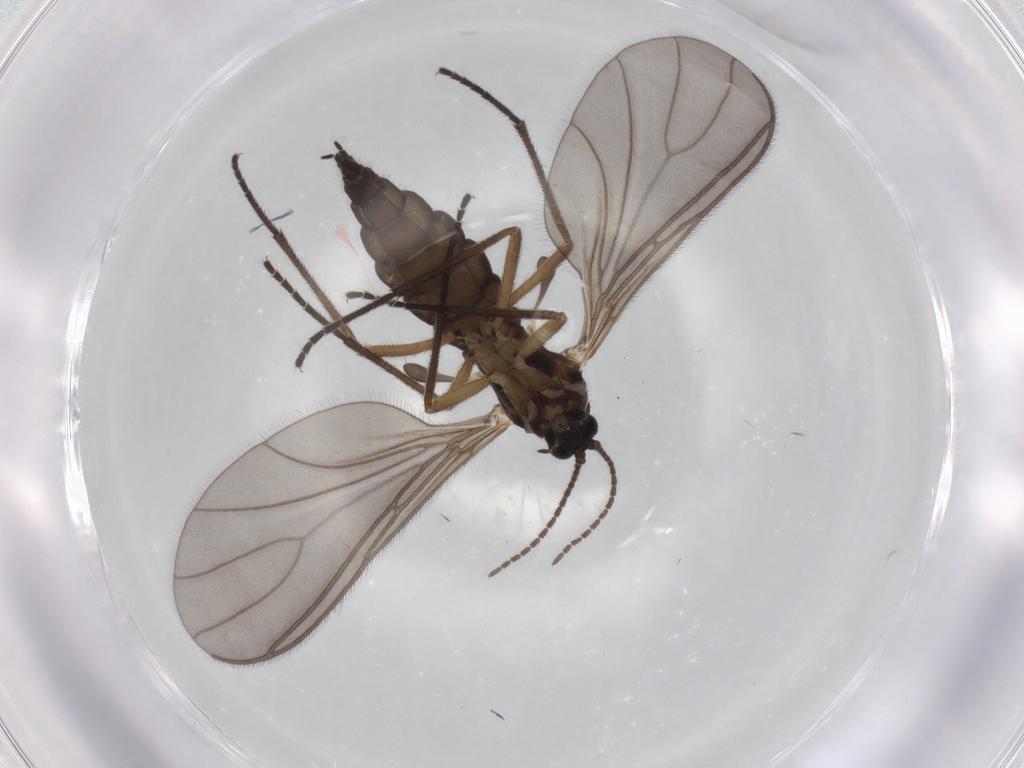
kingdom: Animalia
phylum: Arthropoda
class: Insecta
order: Diptera
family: Sciaridae
